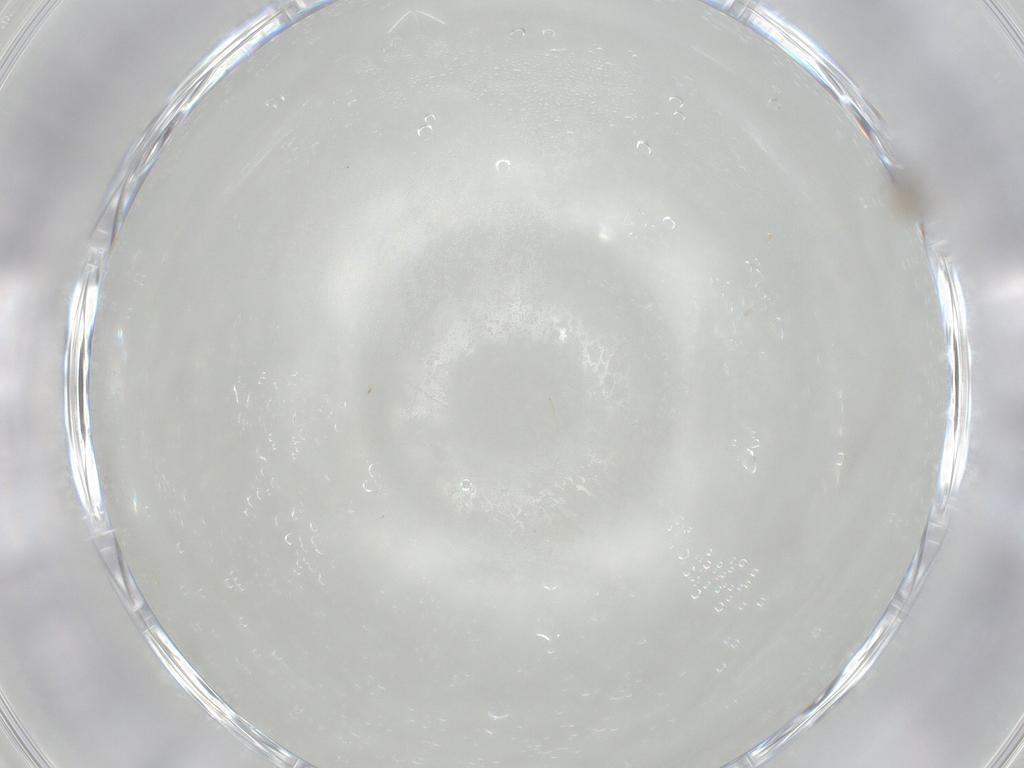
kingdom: Animalia
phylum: Arthropoda
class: Insecta
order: Diptera
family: Cecidomyiidae
